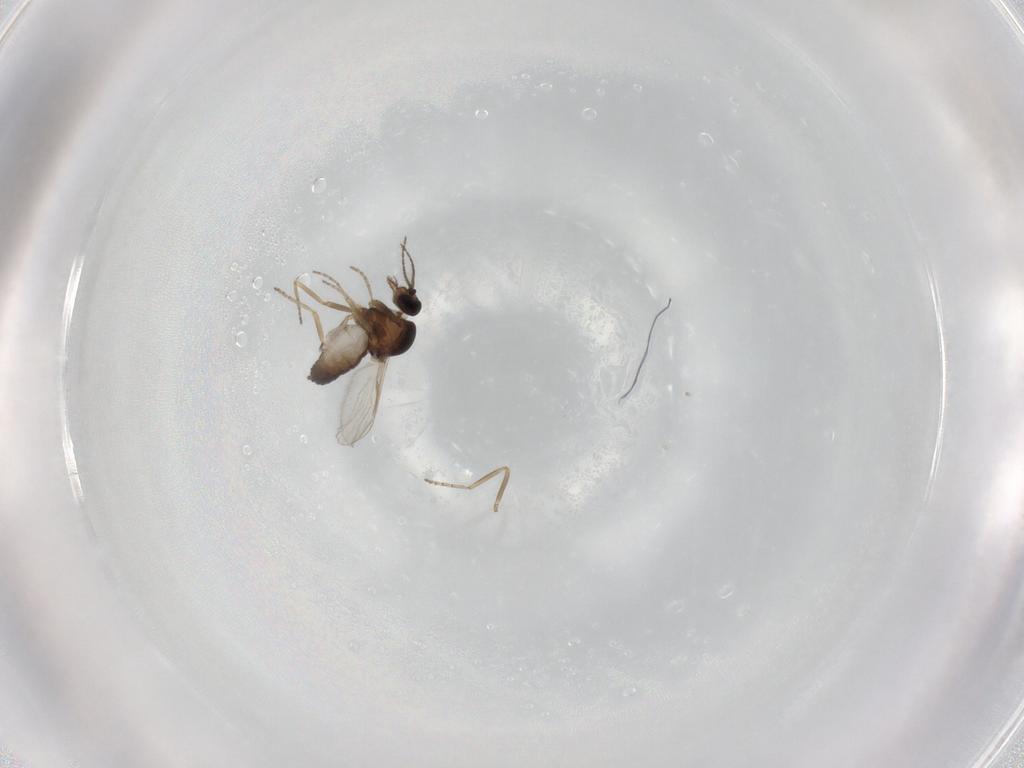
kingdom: Animalia
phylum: Arthropoda
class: Insecta
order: Diptera
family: Ceratopogonidae
